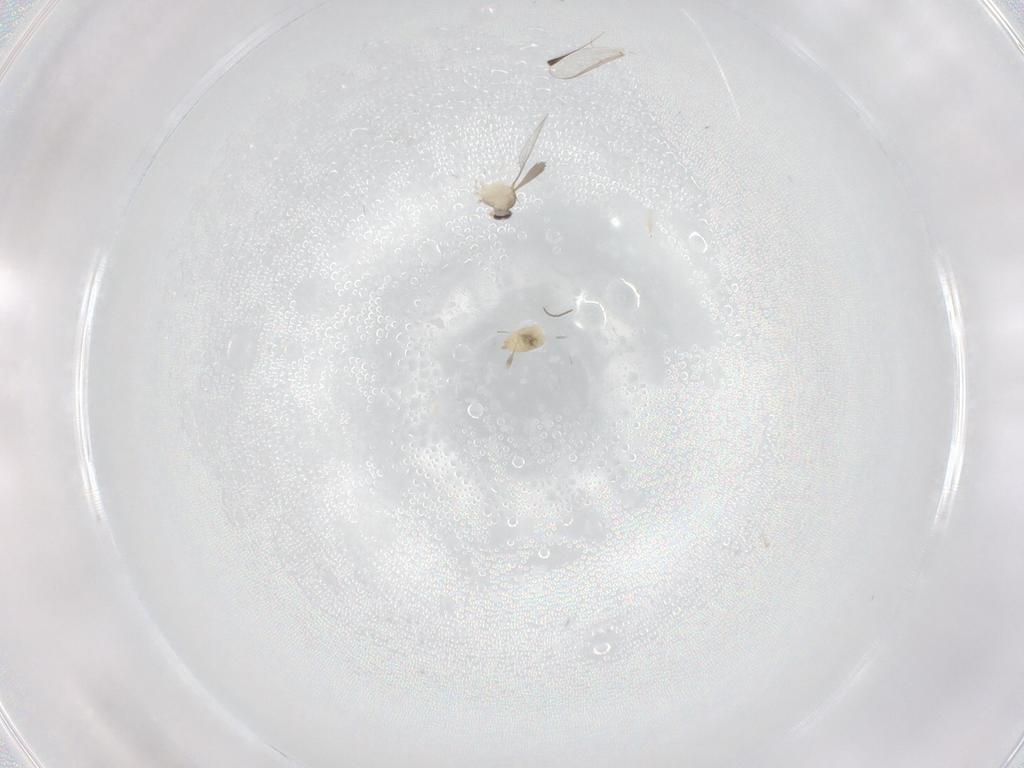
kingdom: Animalia
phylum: Arthropoda
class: Insecta
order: Diptera
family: Cecidomyiidae
